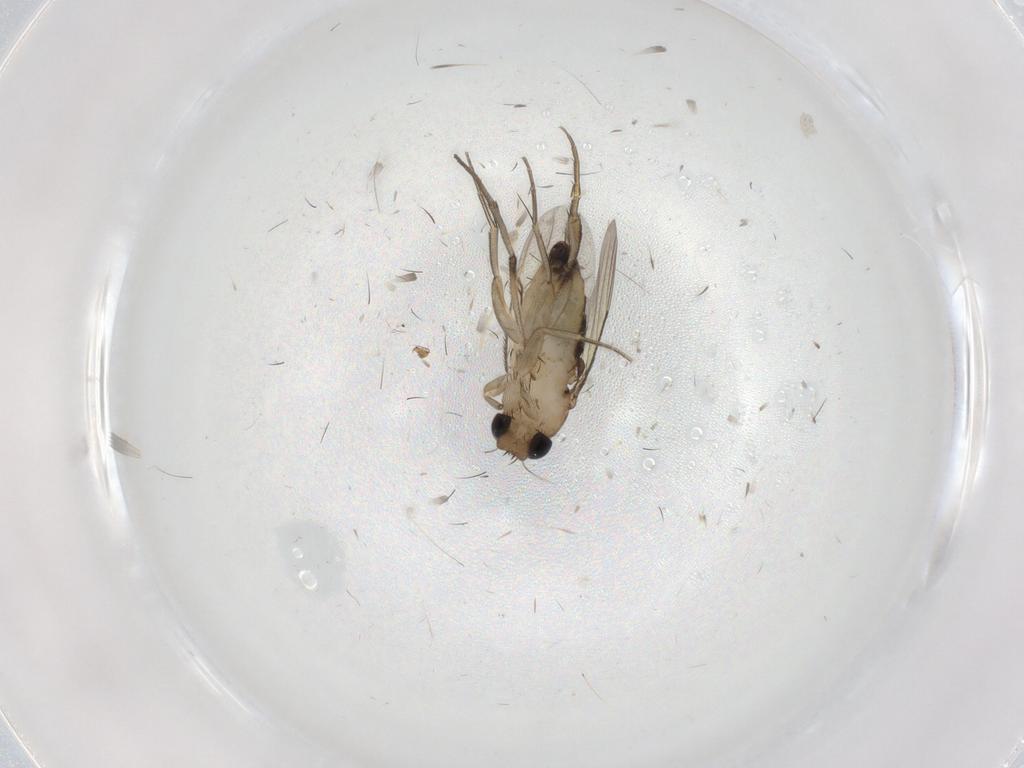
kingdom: Animalia
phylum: Arthropoda
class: Insecta
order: Diptera
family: Phoridae
